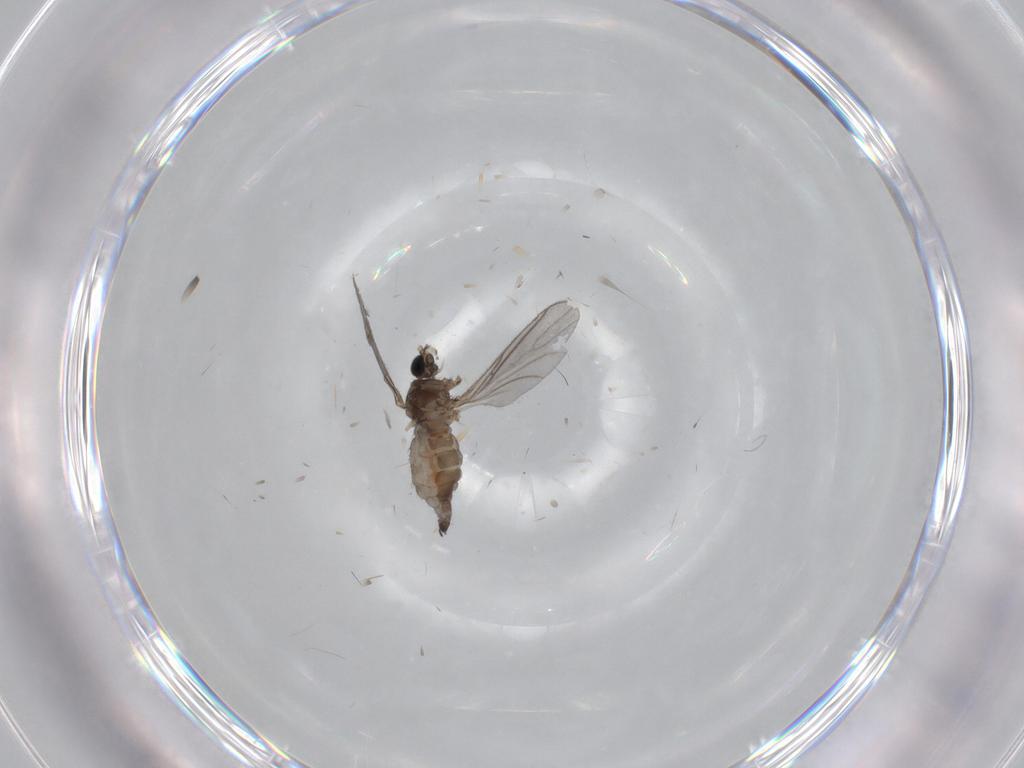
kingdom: Animalia
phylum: Arthropoda
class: Insecta
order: Diptera
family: Sciaridae
